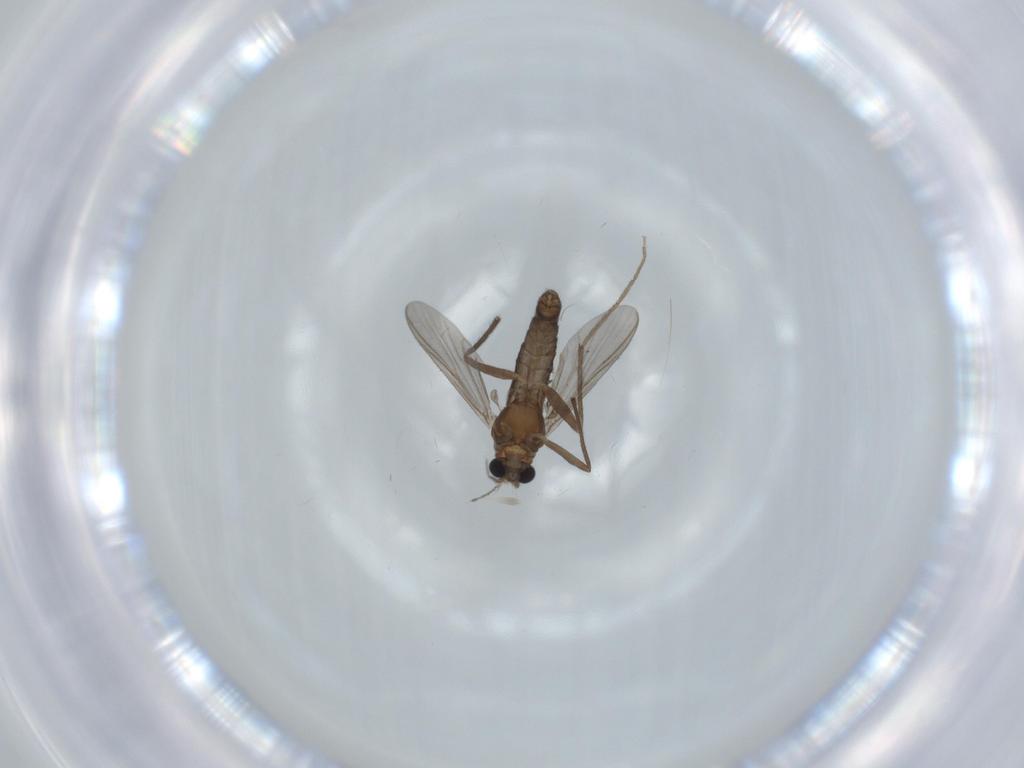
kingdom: Animalia
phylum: Arthropoda
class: Insecta
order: Diptera
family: Chironomidae
